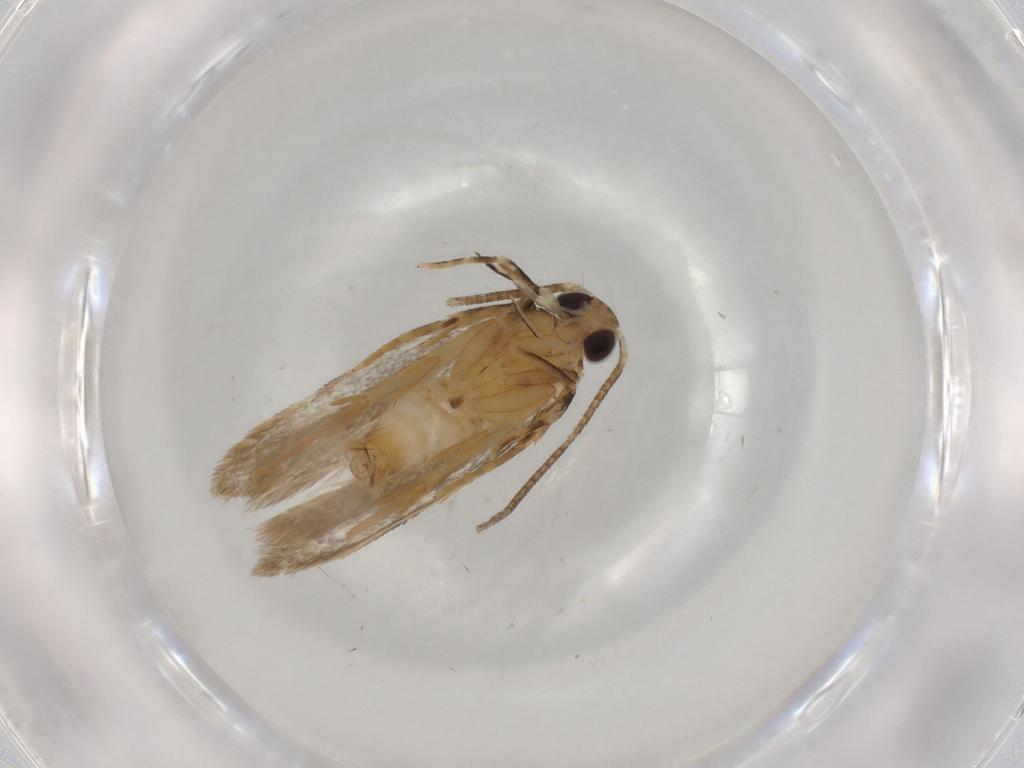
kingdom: Animalia
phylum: Arthropoda
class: Insecta
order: Lepidoptera
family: Autostichidae
